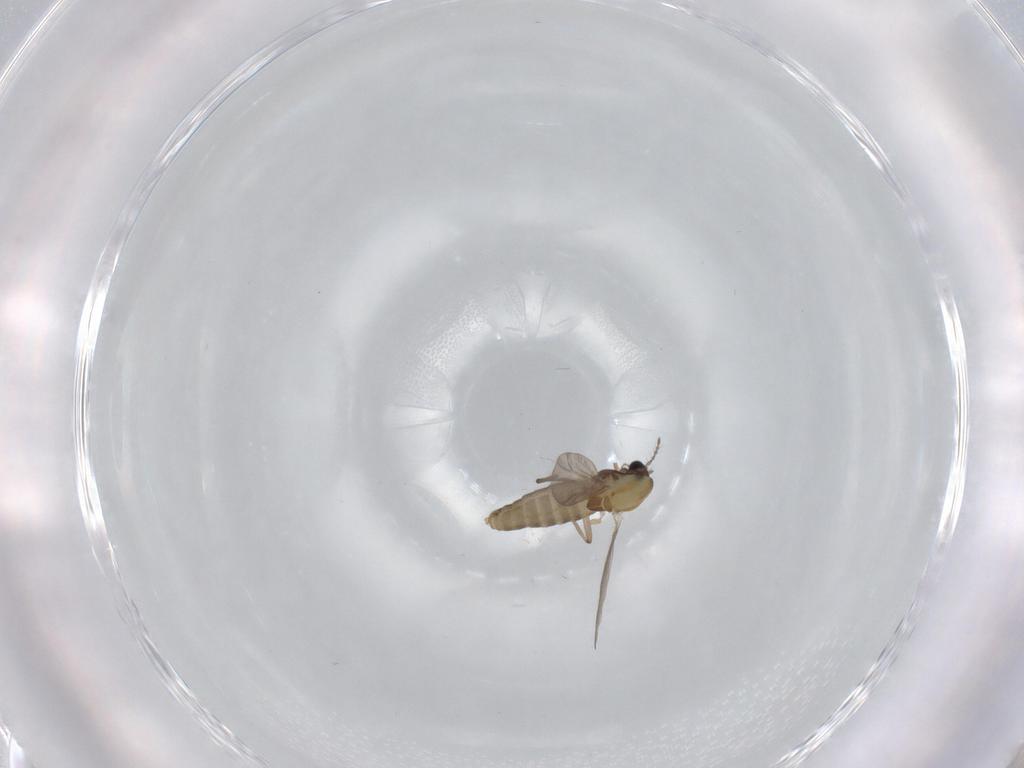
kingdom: Animalia
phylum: Arthropoda
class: Insecta
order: Diptera
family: Chironomidae
